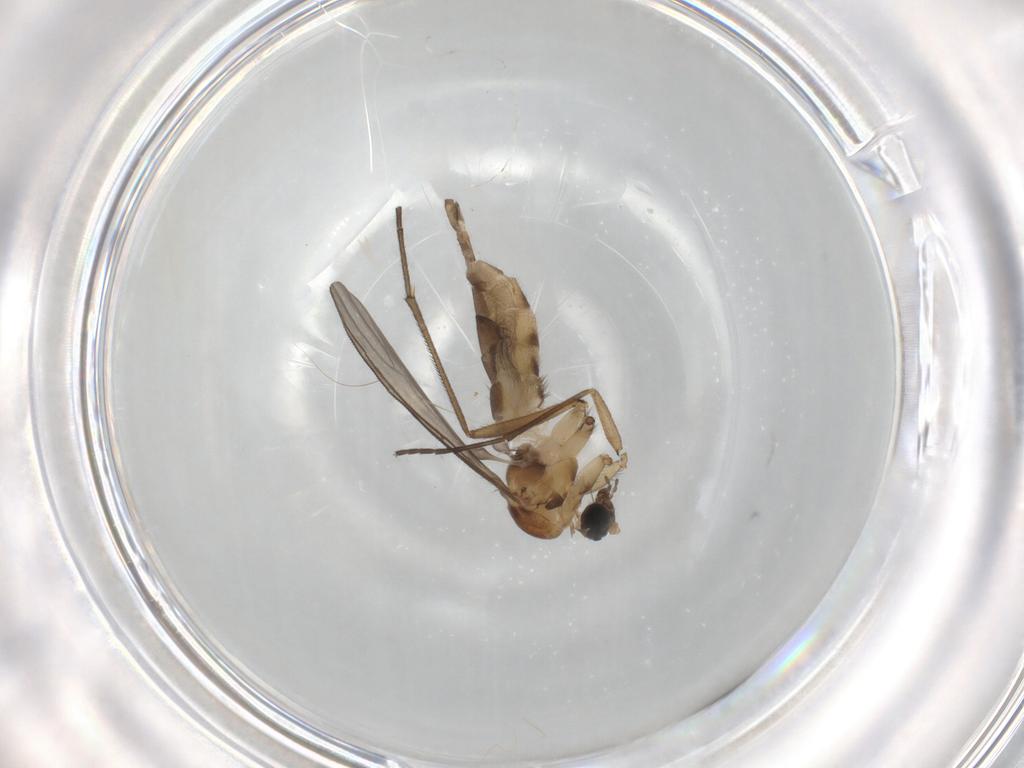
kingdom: Animalia
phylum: Arthropoda
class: Insecta
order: Diptera
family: Sciaridae
